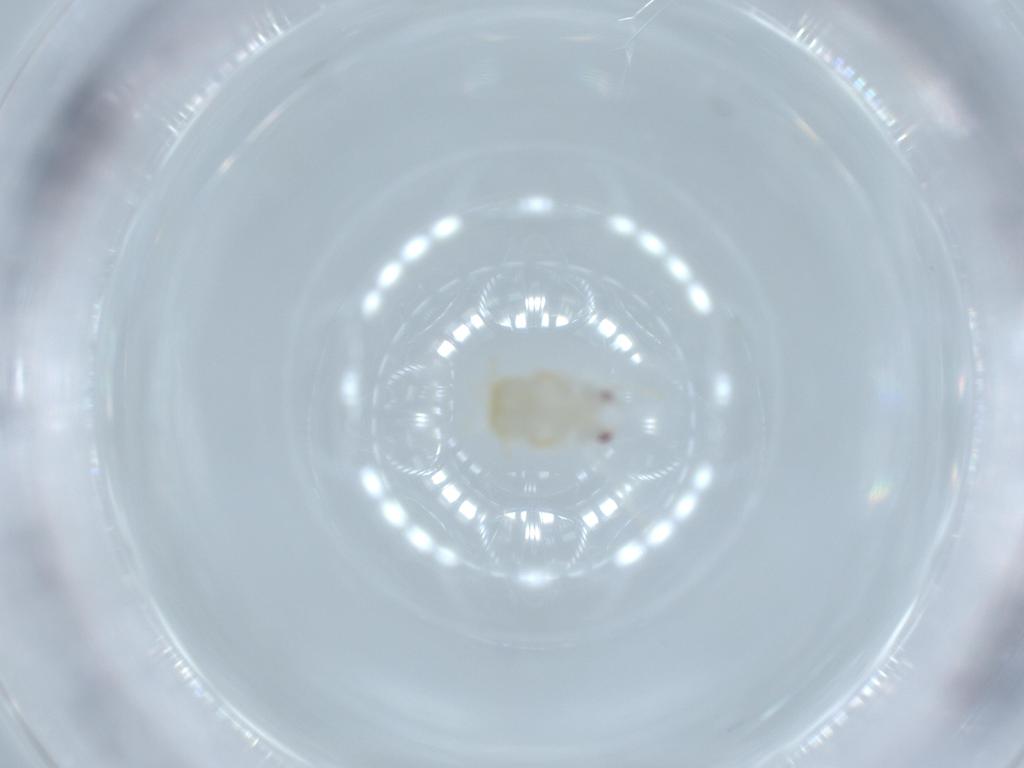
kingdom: Animalia
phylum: Arthropoda
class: Insecta
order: Hemiptera
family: Flatidae
